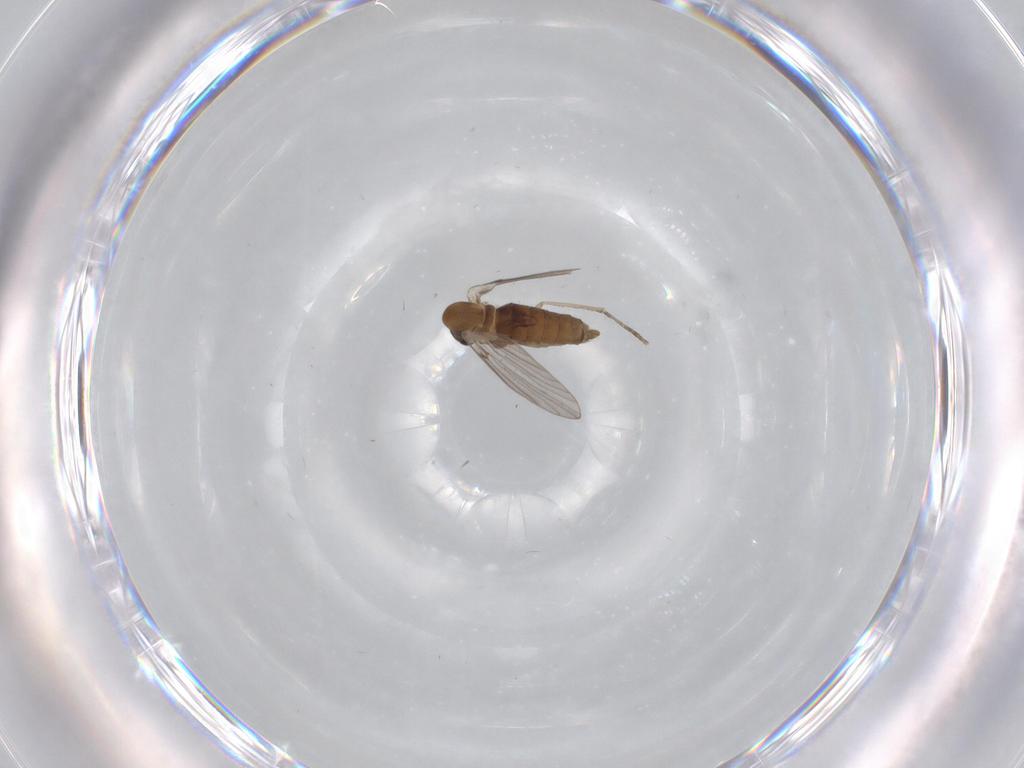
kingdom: Animalia
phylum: Arthropoda
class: Insecta
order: Diptera
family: Psychodidae
